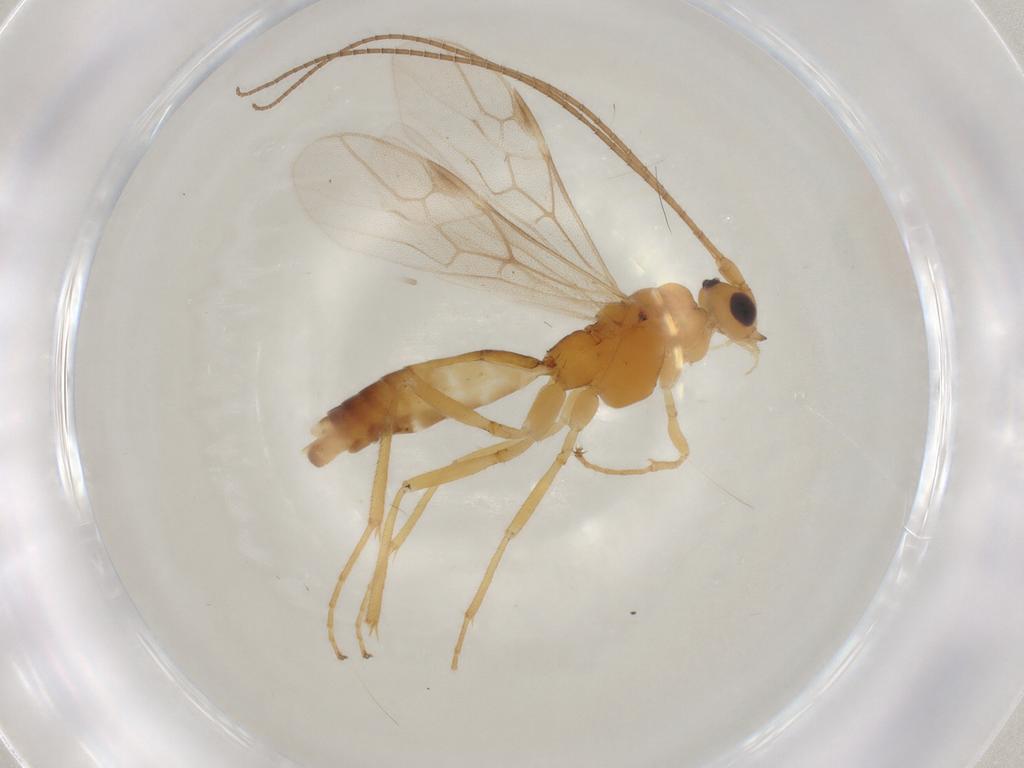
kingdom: Animalia
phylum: Arthropoda
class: Insecta
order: Hymenoptera
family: Braconidae
